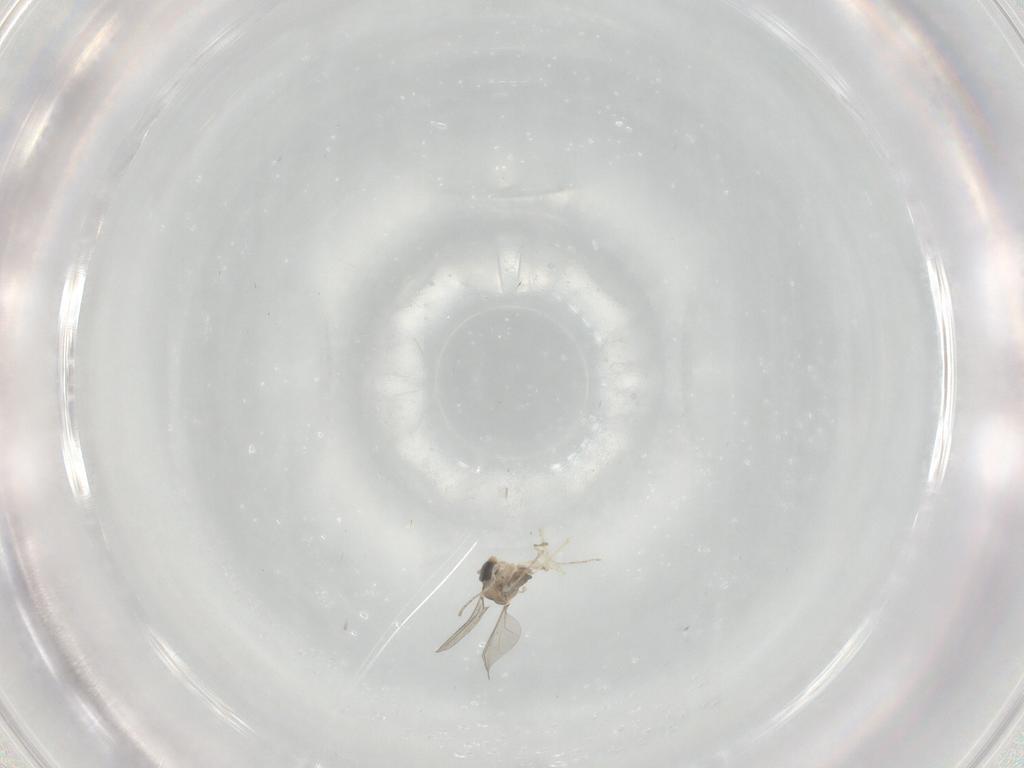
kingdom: Animalia
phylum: Arthropoda
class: Insecta
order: Diptera
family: Cecidomyiidae
